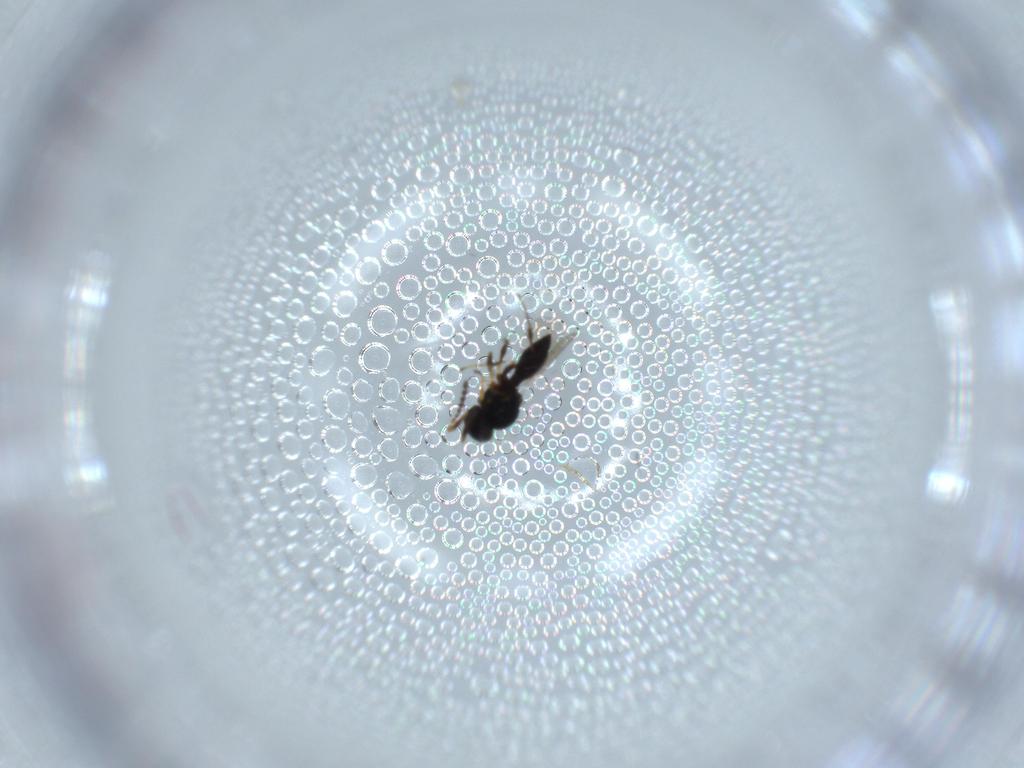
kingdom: Animalia
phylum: Arthropoda
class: Insecta
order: Hymenoptera
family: Platygastridae
